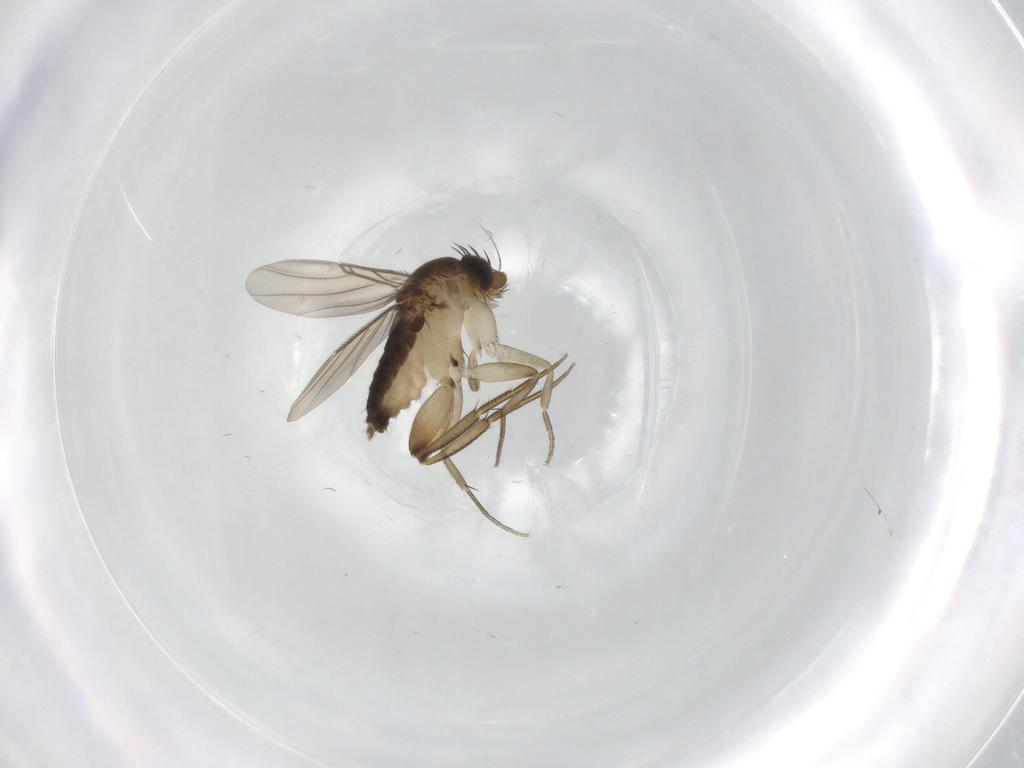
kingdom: Animalia
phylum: Arthropoda
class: Insecta
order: Diptera
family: Phoridae
